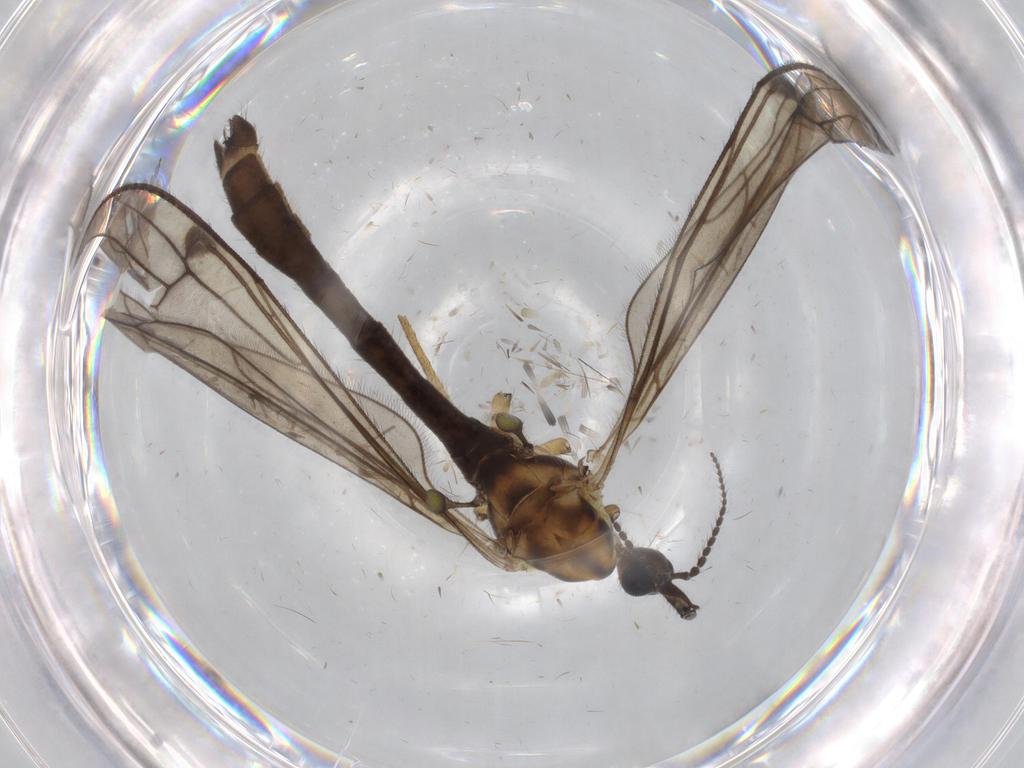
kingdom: Animalia
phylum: Arthropoda
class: Insecta
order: Diptera
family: Limoniidae
